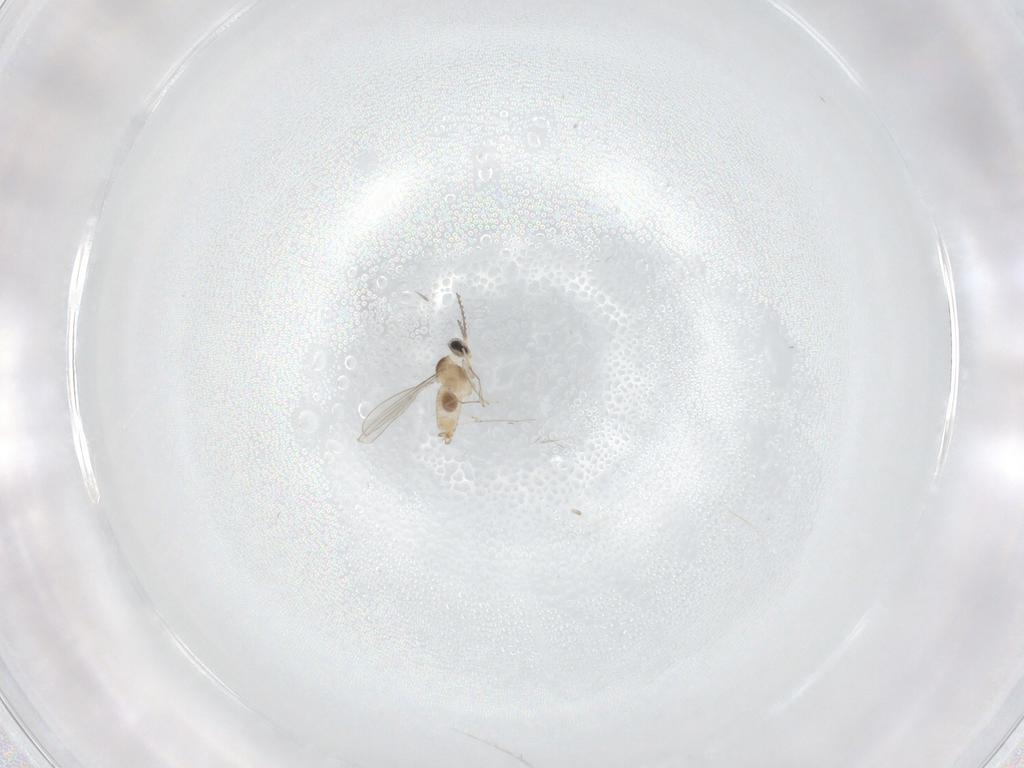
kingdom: Animalia
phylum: Arthropoda
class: Insecta
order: Diptera
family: Cecidomyiidae
